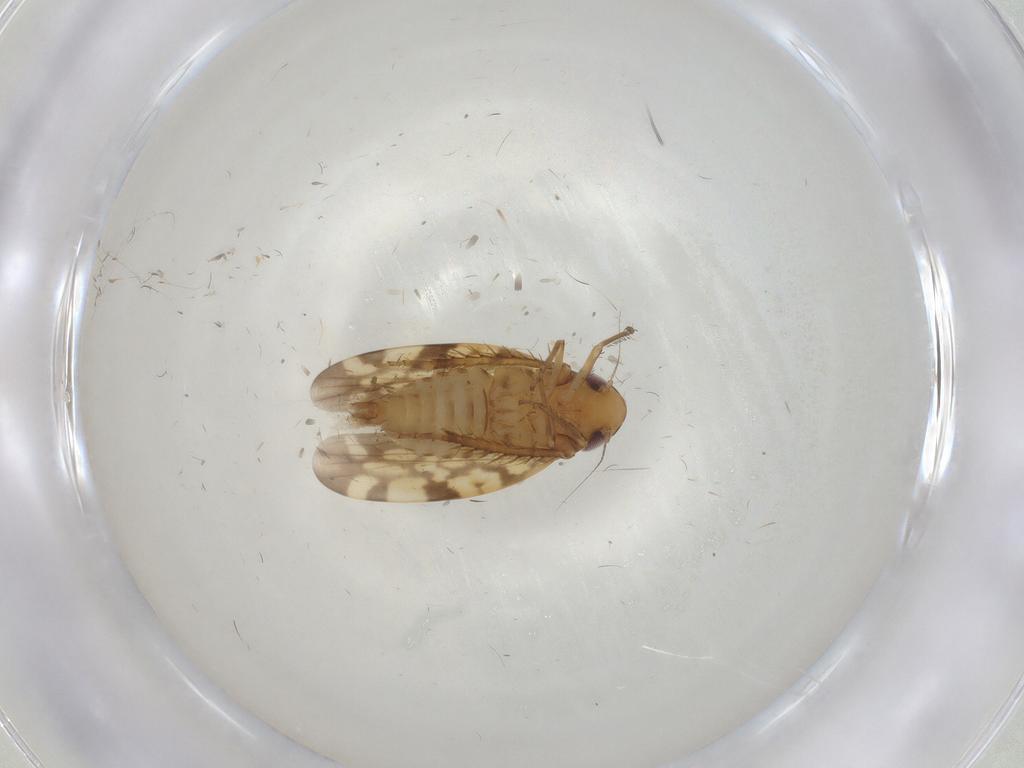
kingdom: Animalia
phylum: Arthropoda
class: Insecta
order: Hemiptera
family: Cicadellidae
